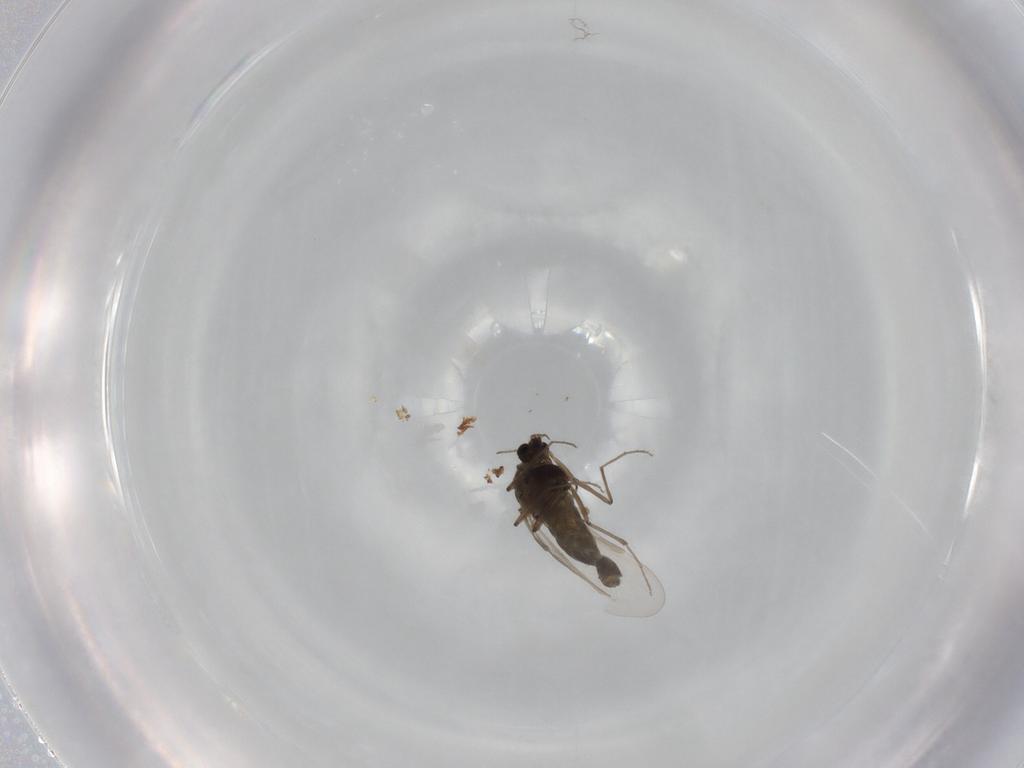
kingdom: Animalia
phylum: Arthropoda
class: Insecta
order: Diptera
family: Chironomidae
